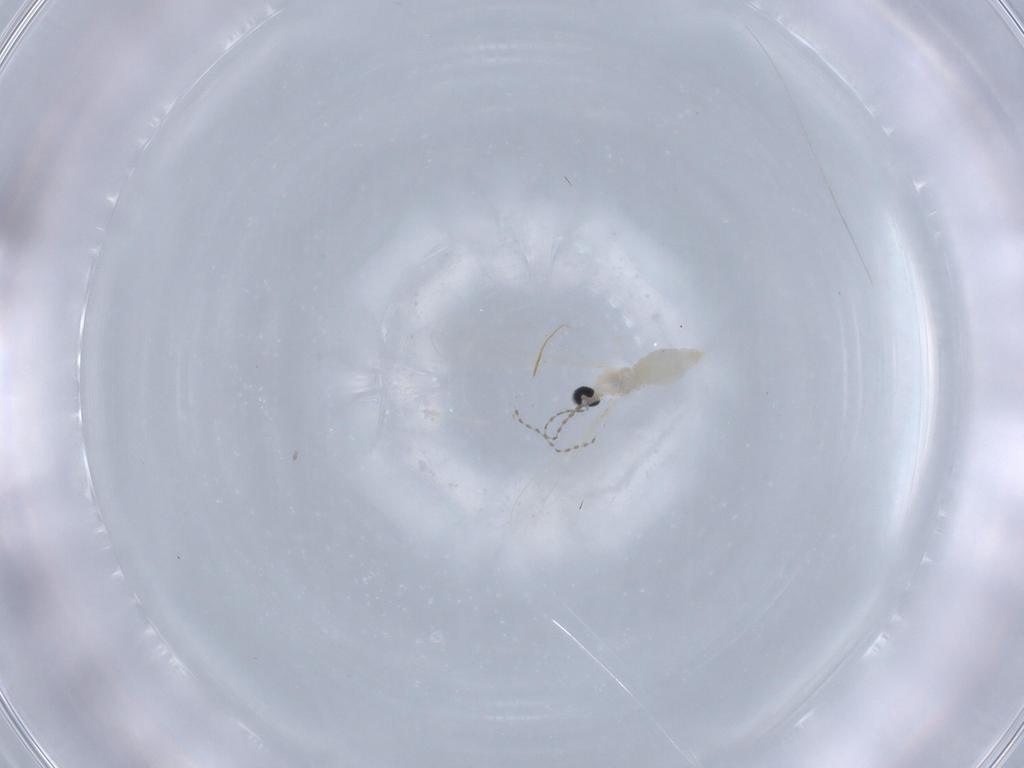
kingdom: Animalia
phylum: Arthropoda
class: Insecta
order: Diptera
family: Cecidomyiidae
